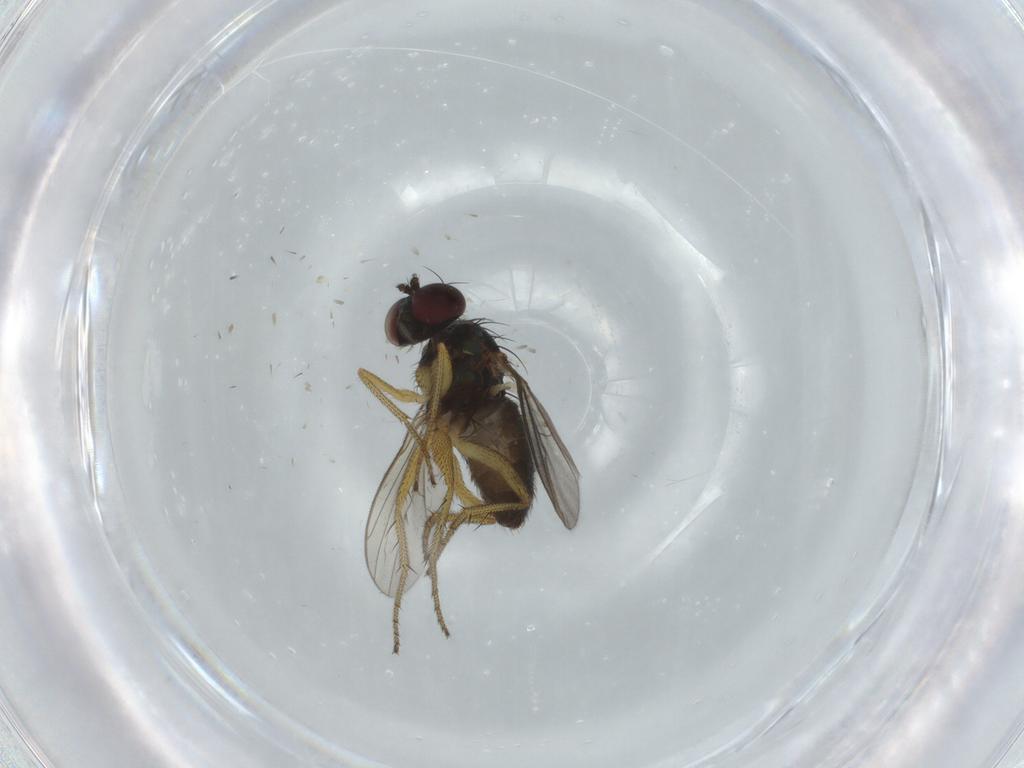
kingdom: Animalia
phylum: Arthropoda
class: Insecta
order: Diptera
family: Dolichopodidae
